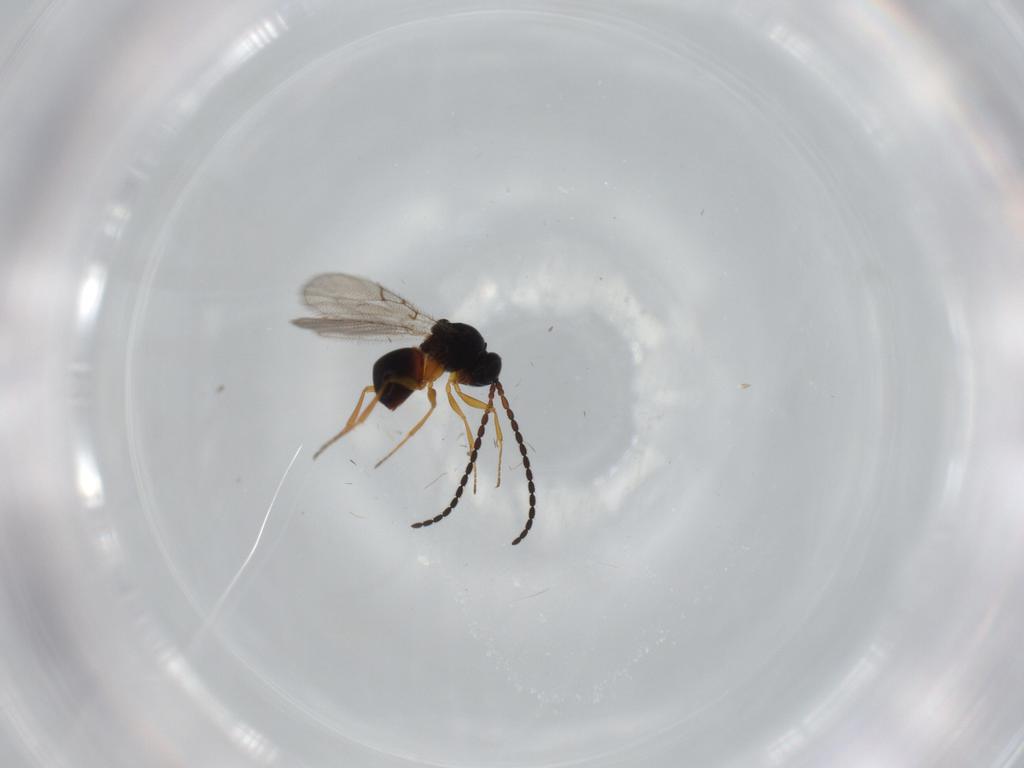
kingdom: Animalia
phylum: Arthropoda
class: Insecta
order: Hymenoptera
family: Figitidae
